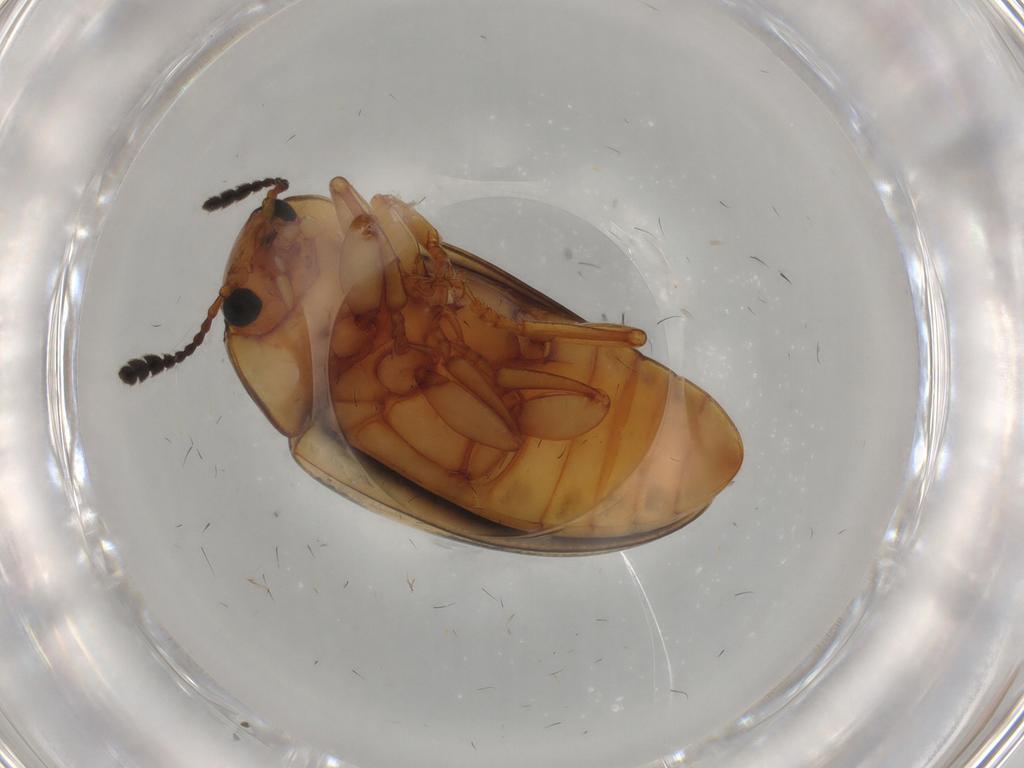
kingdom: Animalia
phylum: Arthropoda
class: Insecta
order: Coleoptera
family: Erotylidae
